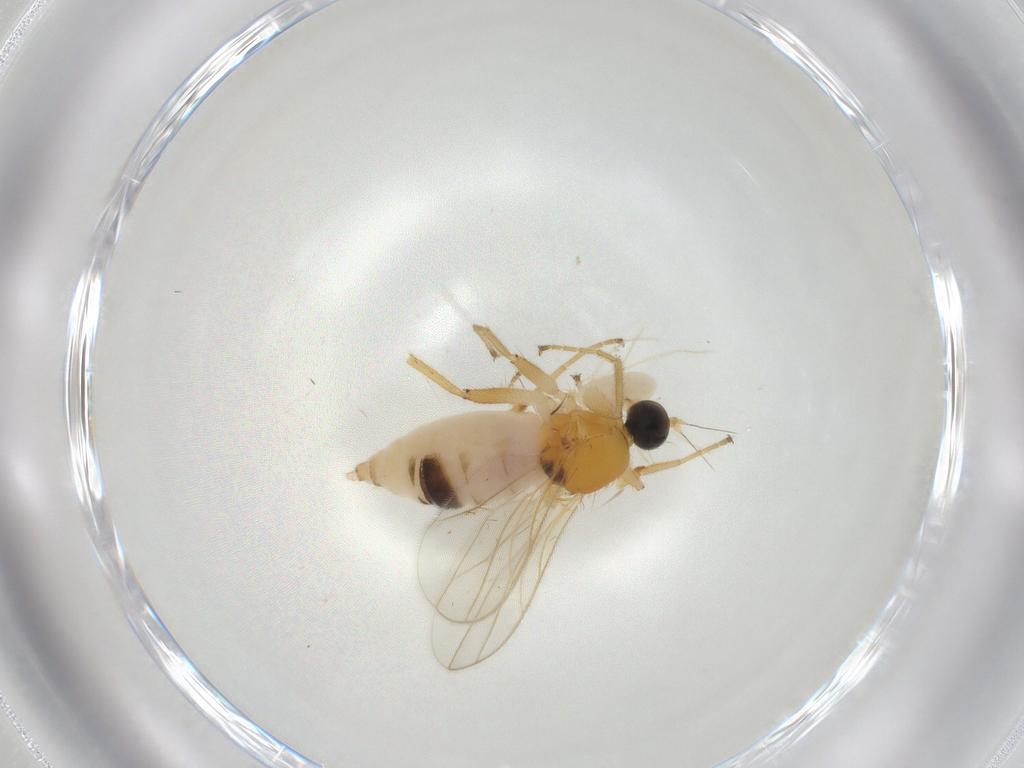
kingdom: Animalia
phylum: Arthropoda
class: Insecta
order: Diptera
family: Hybotidae
